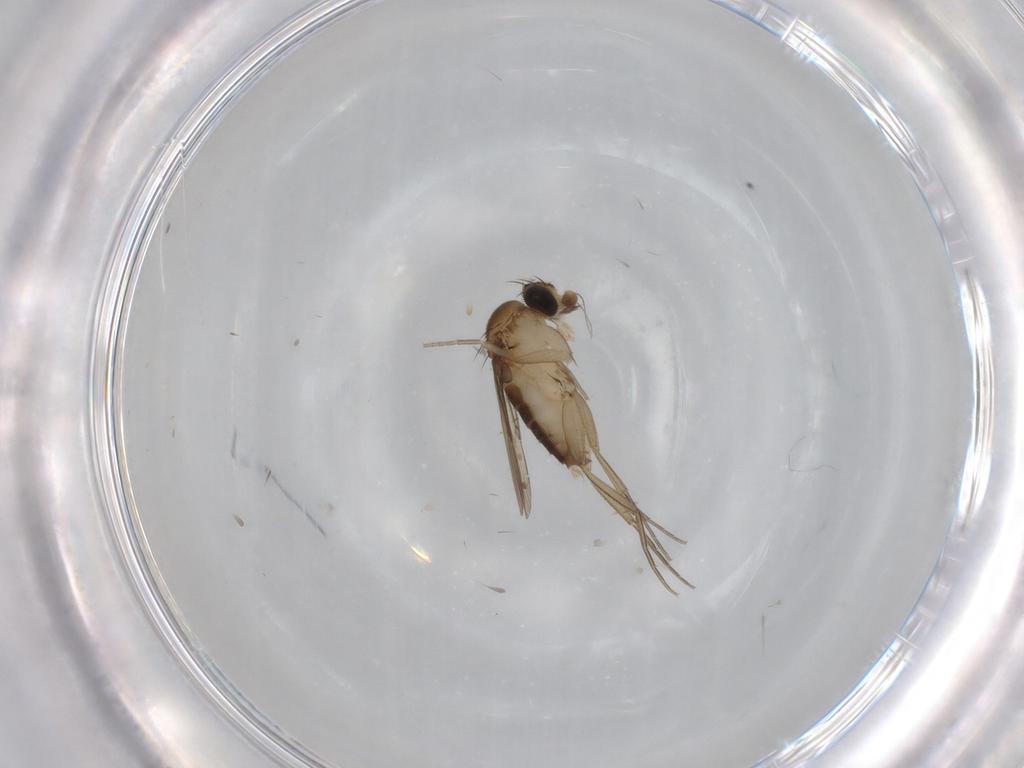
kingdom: Animalia
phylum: Arthropoda
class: Insecta
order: Diptera
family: Phoridae
